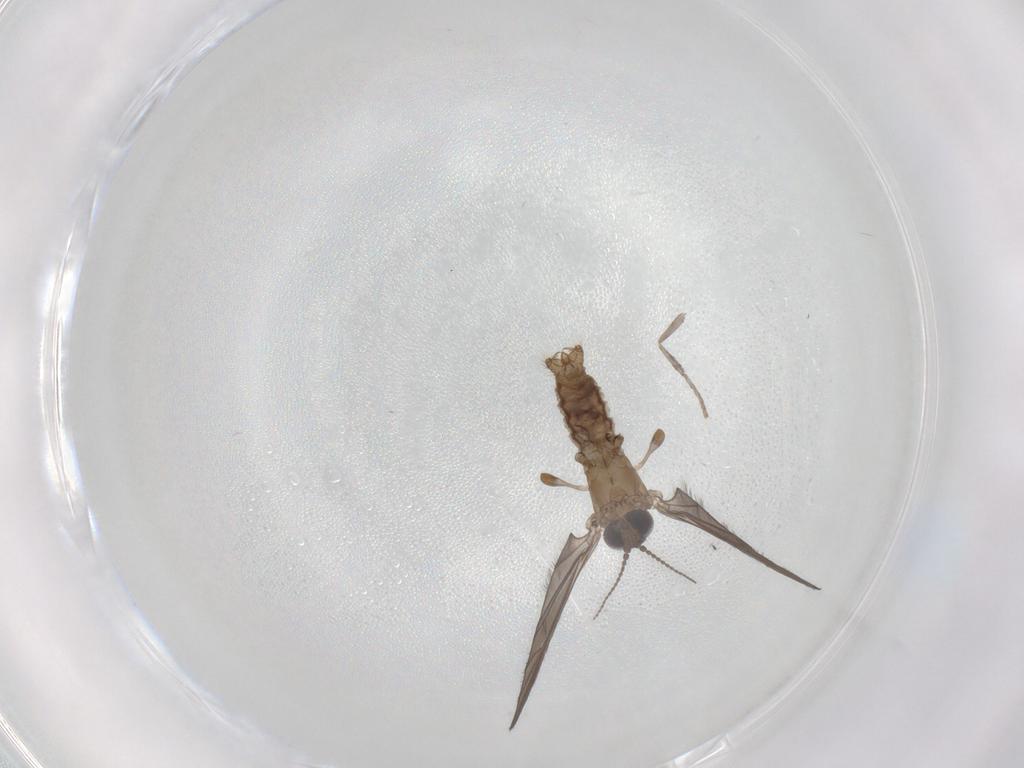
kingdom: Animalia
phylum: Arthropoda
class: Insecta
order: Diptera
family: Limoniidae
